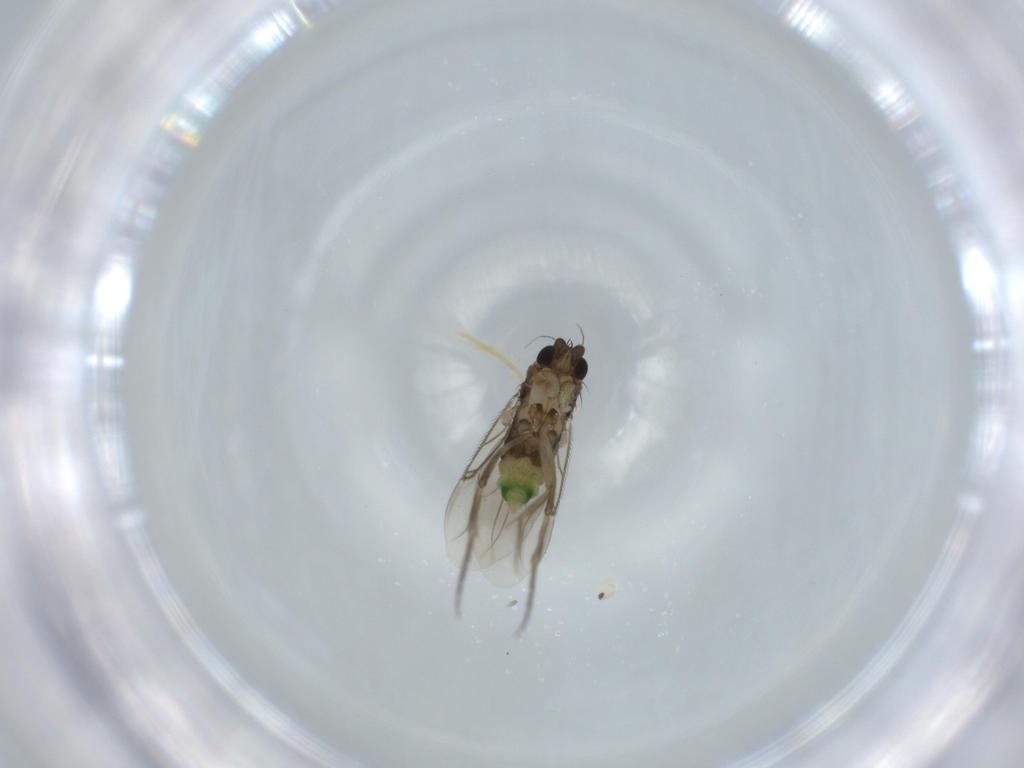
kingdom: Animalia
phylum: Arthropoda
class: Insecta
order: Diptera
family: Phoridae
